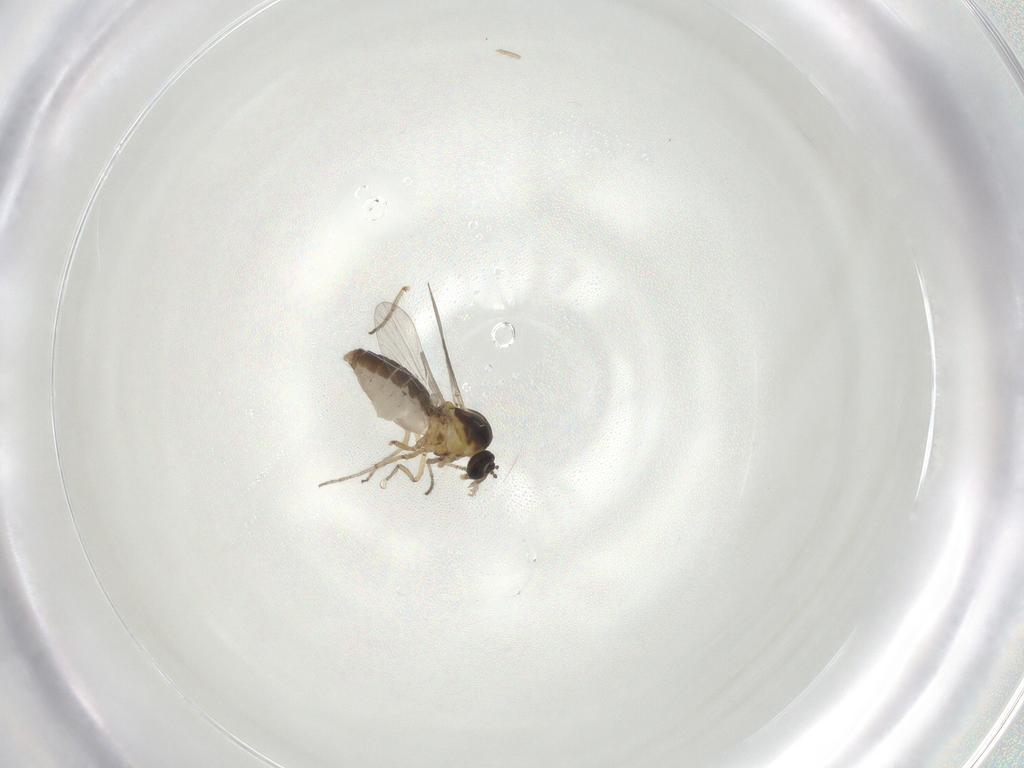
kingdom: Animalia
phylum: Arthropoda
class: Insecta
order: Diptera
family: Ceratopogonidae
